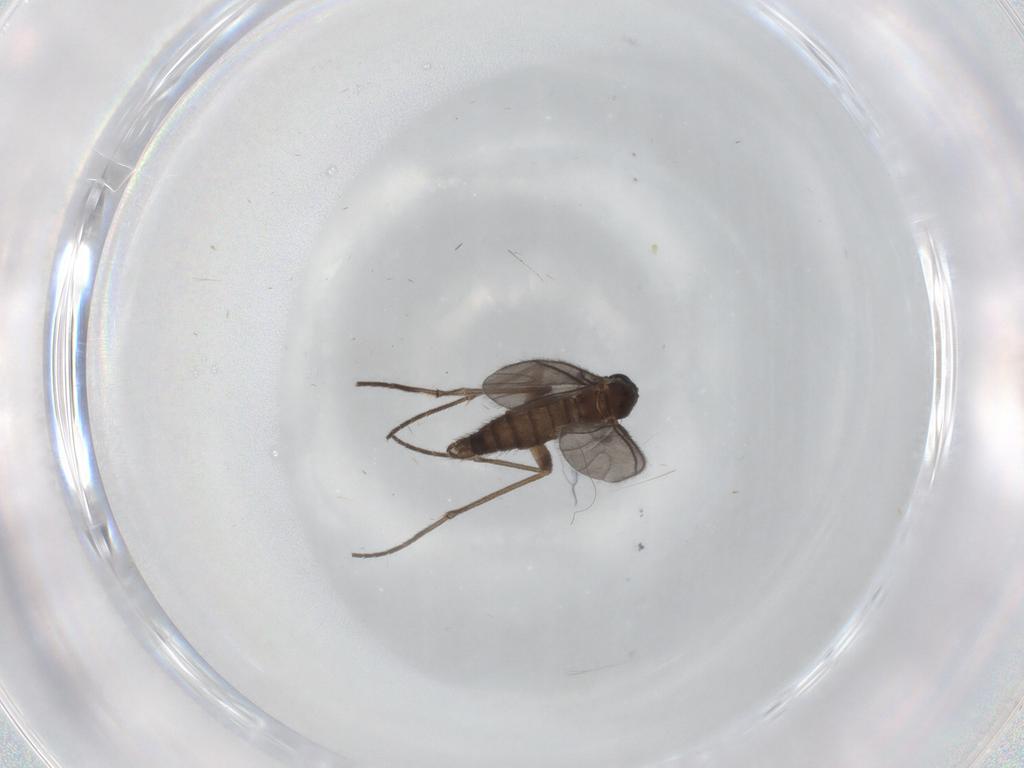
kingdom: Animalia
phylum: Arthropoda
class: Insecta
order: Diptera
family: Sciaridae
